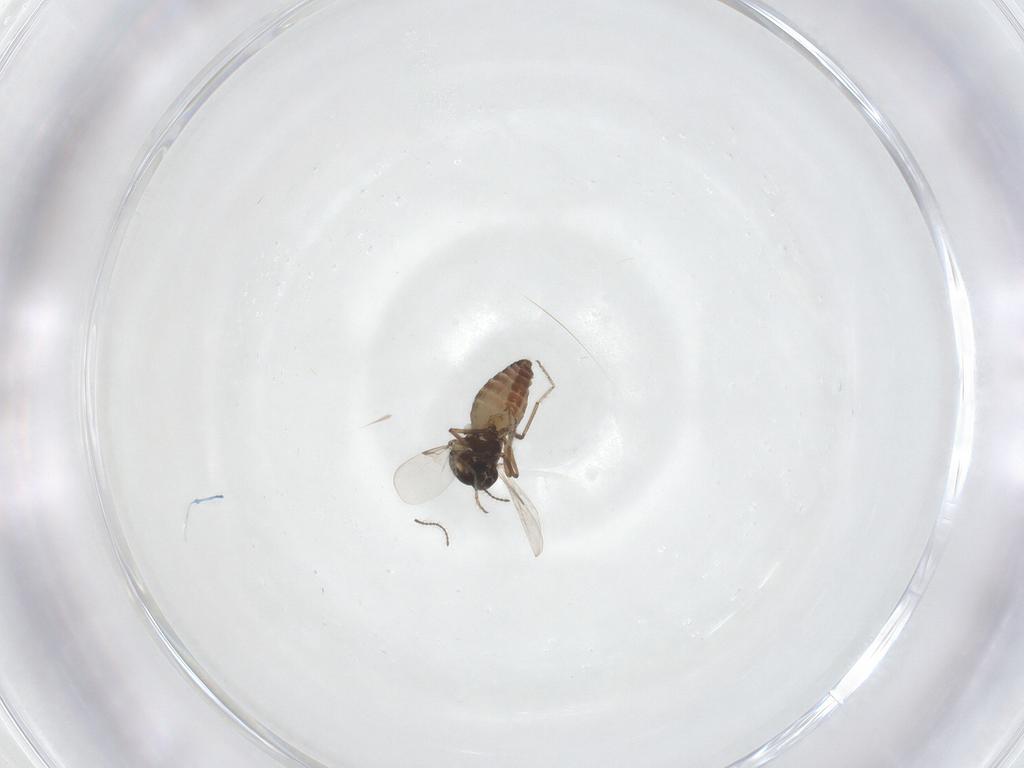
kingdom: Animalia
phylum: Arthropoda
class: Insecta
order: Diptera
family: Ceratopogonidae
